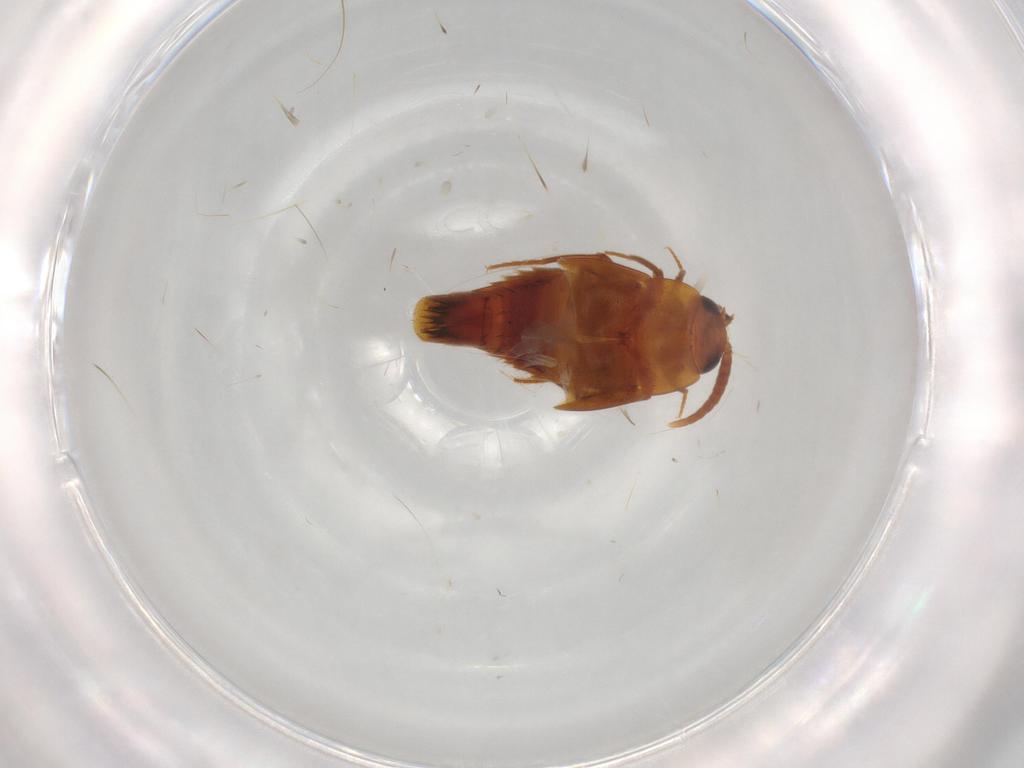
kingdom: Animalia
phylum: Arthropoda
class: Insecta
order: Coleoptera
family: Staphylinidae
